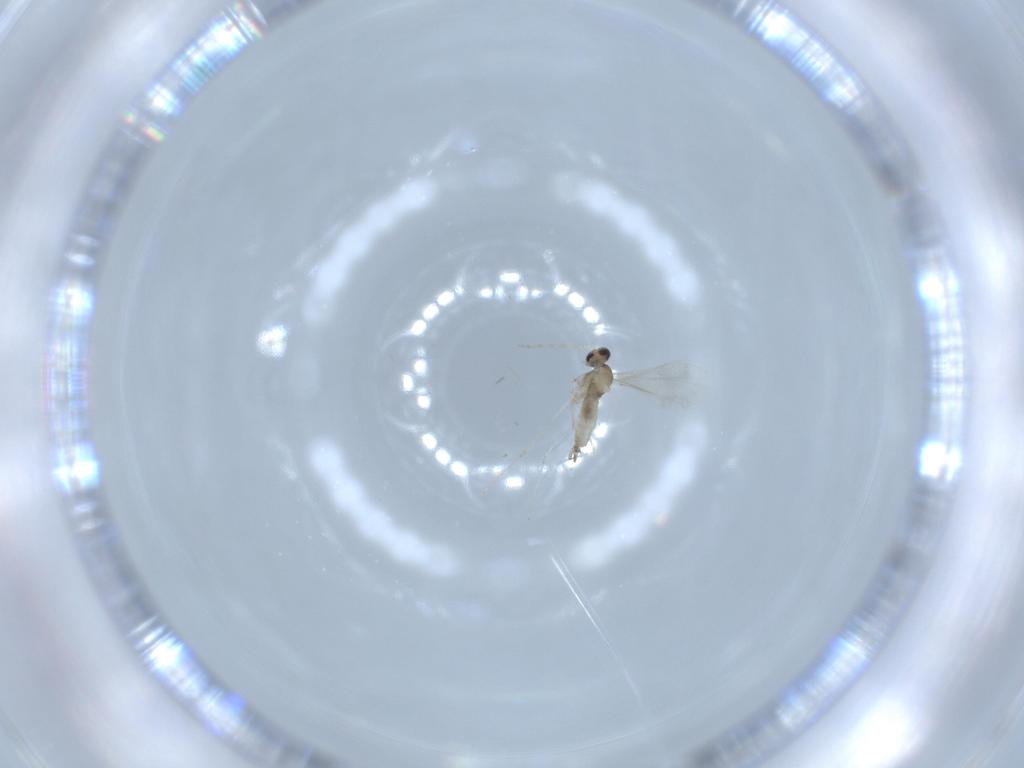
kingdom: Animalia
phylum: Arthropoda
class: Insecta
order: Diptera
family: Cecidomyiidae
